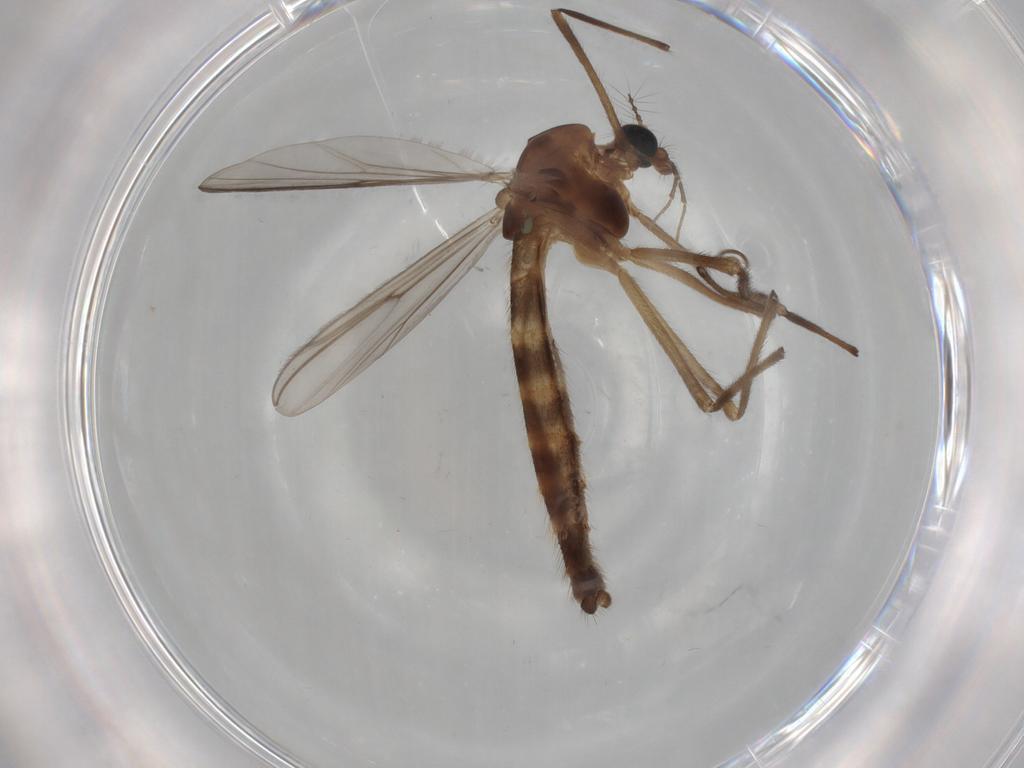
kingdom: Animalia
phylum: Arthropoda
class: Insecta
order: Diptera
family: Chironomidae
